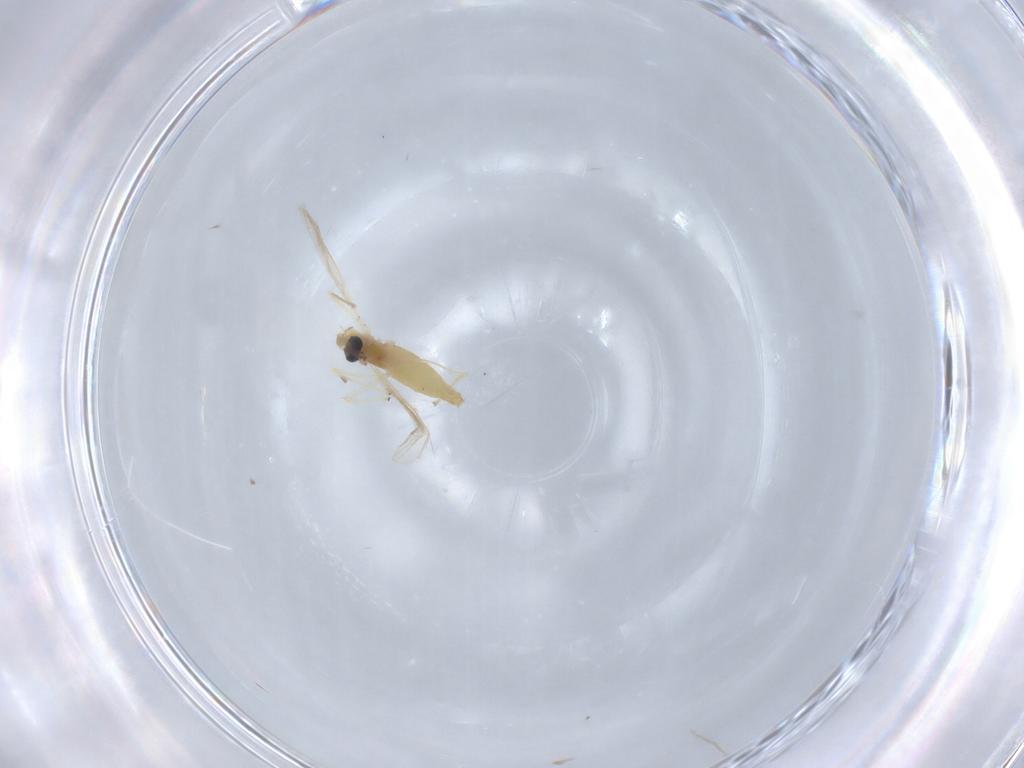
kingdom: Animalia
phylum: Arthropoda
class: Insecta
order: Diptera
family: Chironomidae
